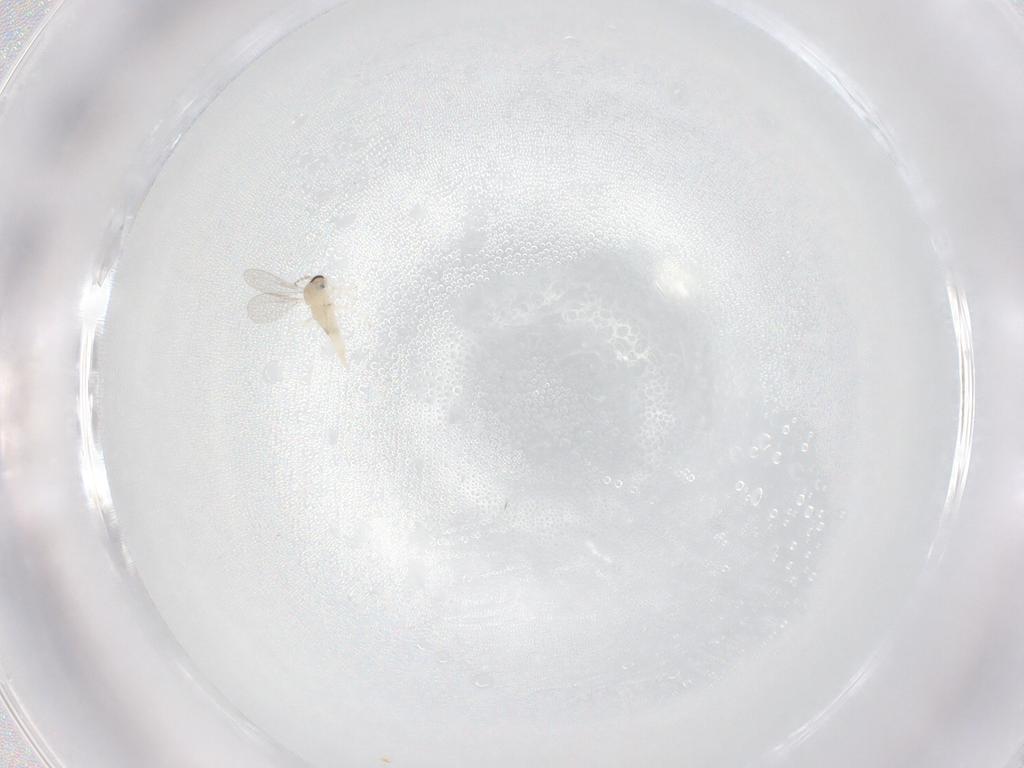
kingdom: Animalia
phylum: Arthropoda
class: Insecta
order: Diptera
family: Cecidomyiidae
